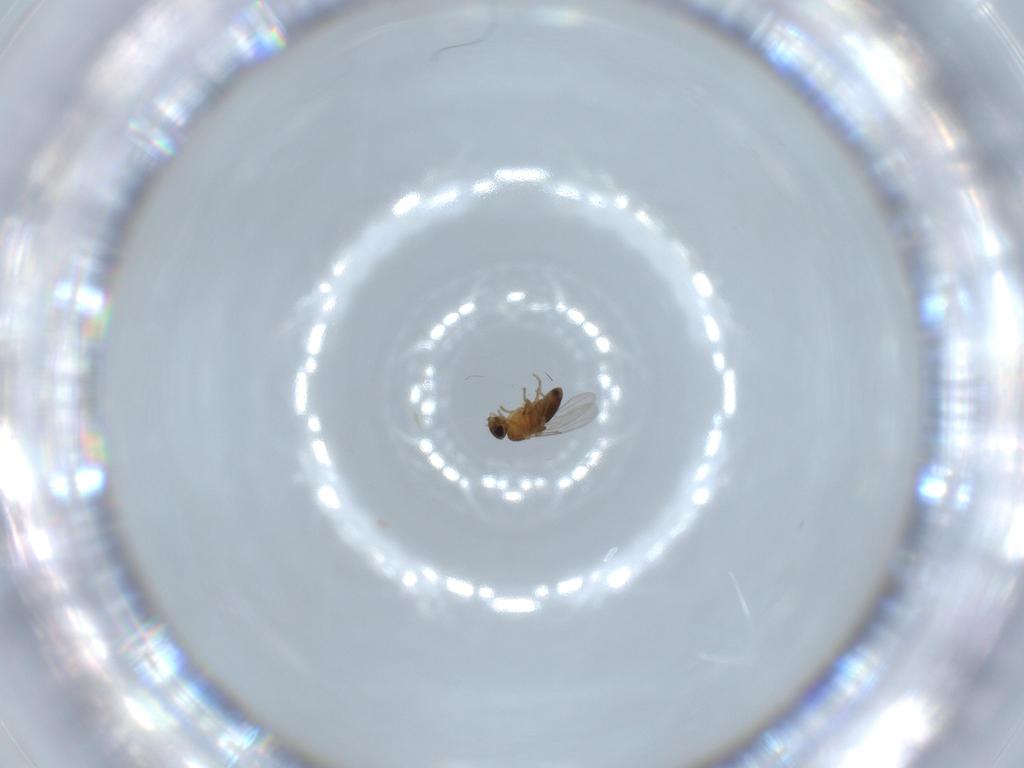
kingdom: Animalia
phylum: Arthropoda
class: Insecta
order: Diptera
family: Phoridae
